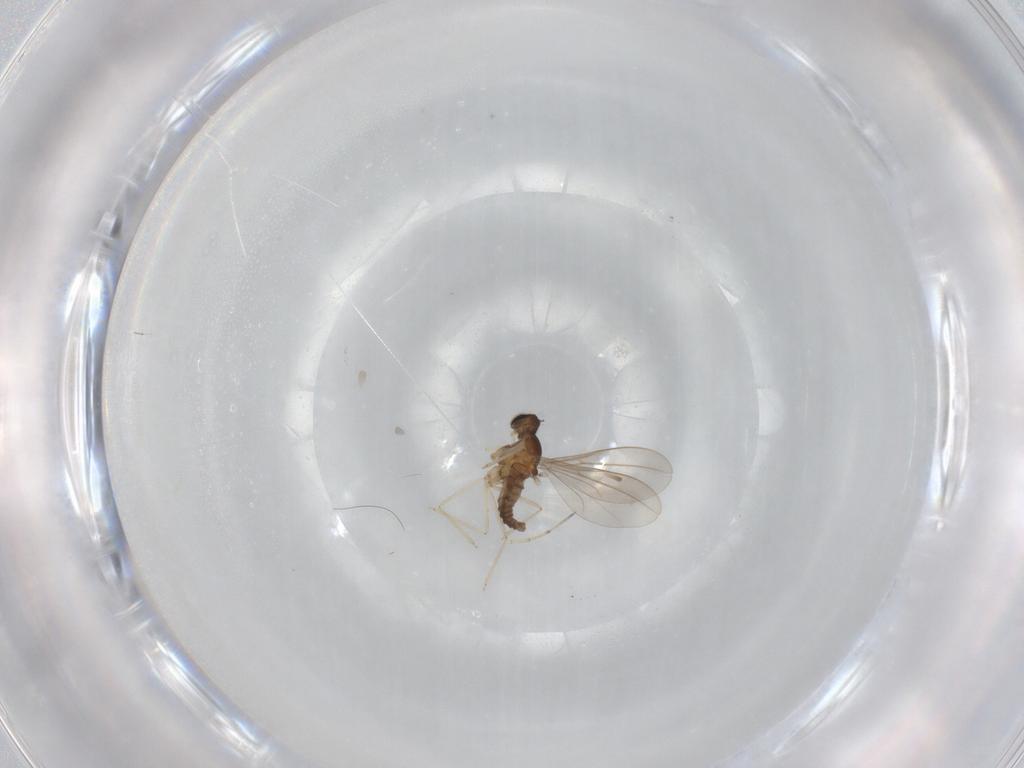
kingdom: Animalia
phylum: Arthropoda
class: Insecta
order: Diptera
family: Cecidomyiidae
